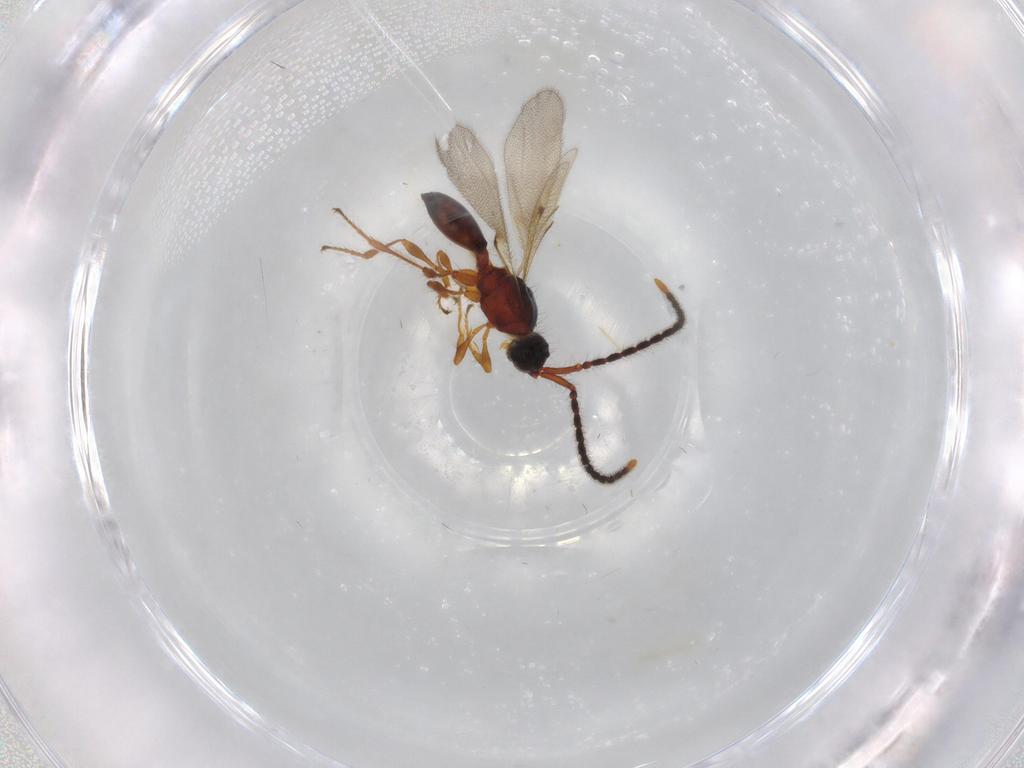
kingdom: Animalia
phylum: Arthropoda
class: Insecta
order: Hymenoptera
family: Diapriidae
